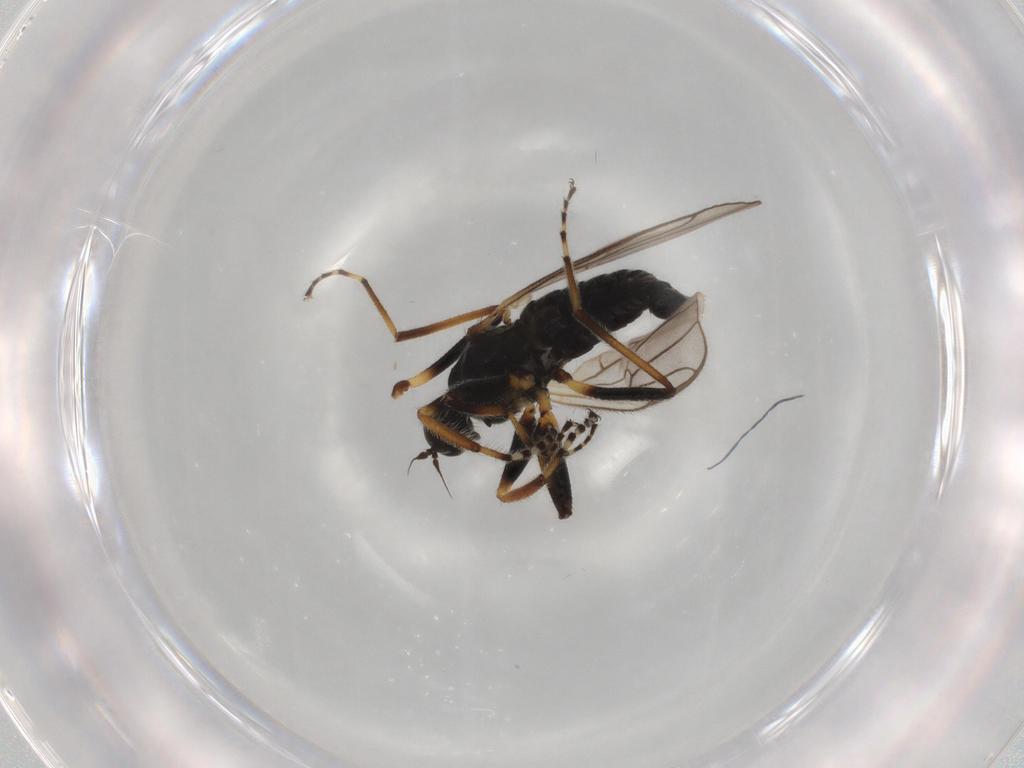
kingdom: Animalia
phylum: Arthropoda
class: Insecta
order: Diptera
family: Hybotidae
